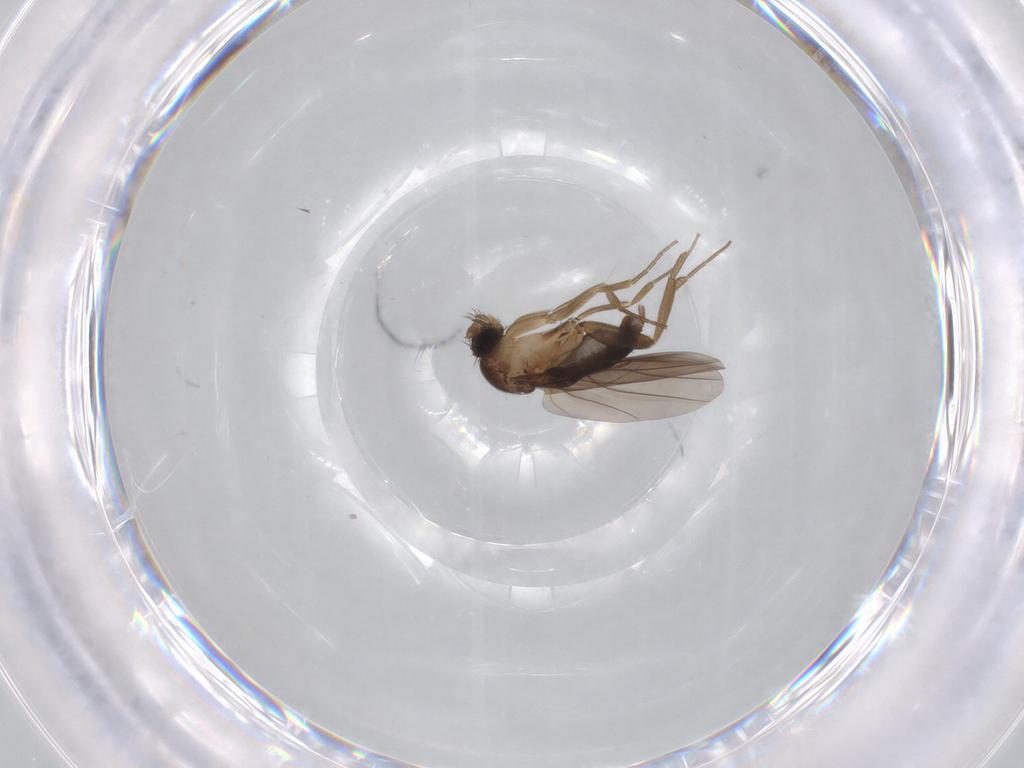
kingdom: Animalia
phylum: Arthropoda
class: Insecta
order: Diptera
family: Phoridae
